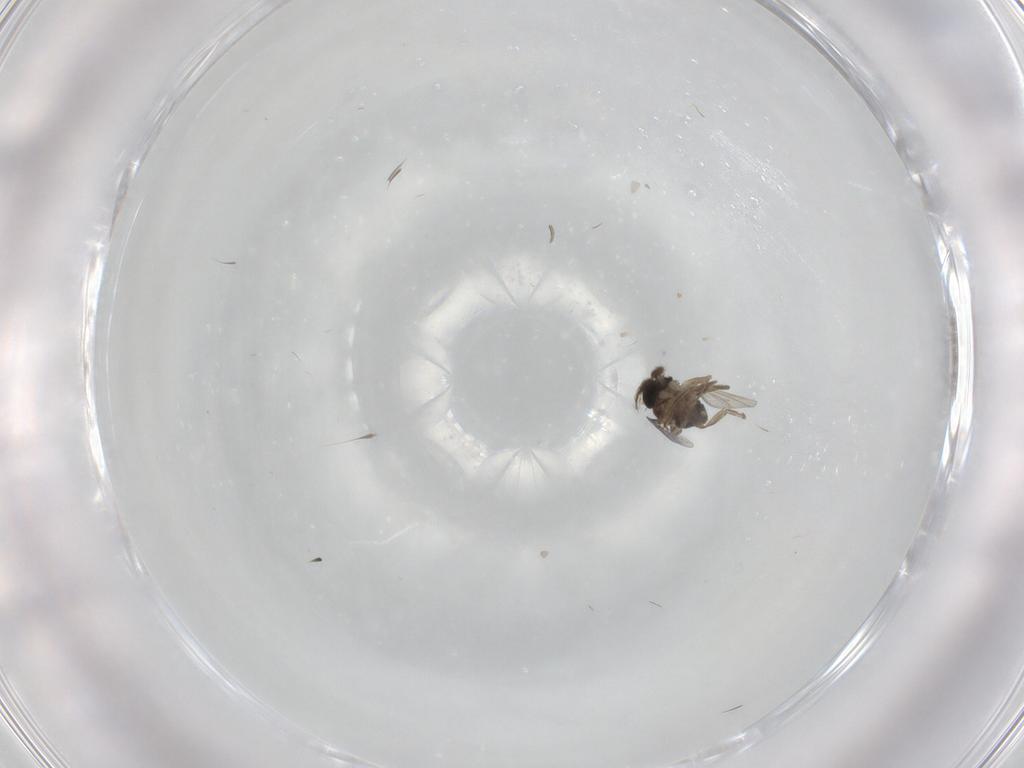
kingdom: Animalia
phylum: Arthropoda
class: Insecta
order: Diptera
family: Phoridae
